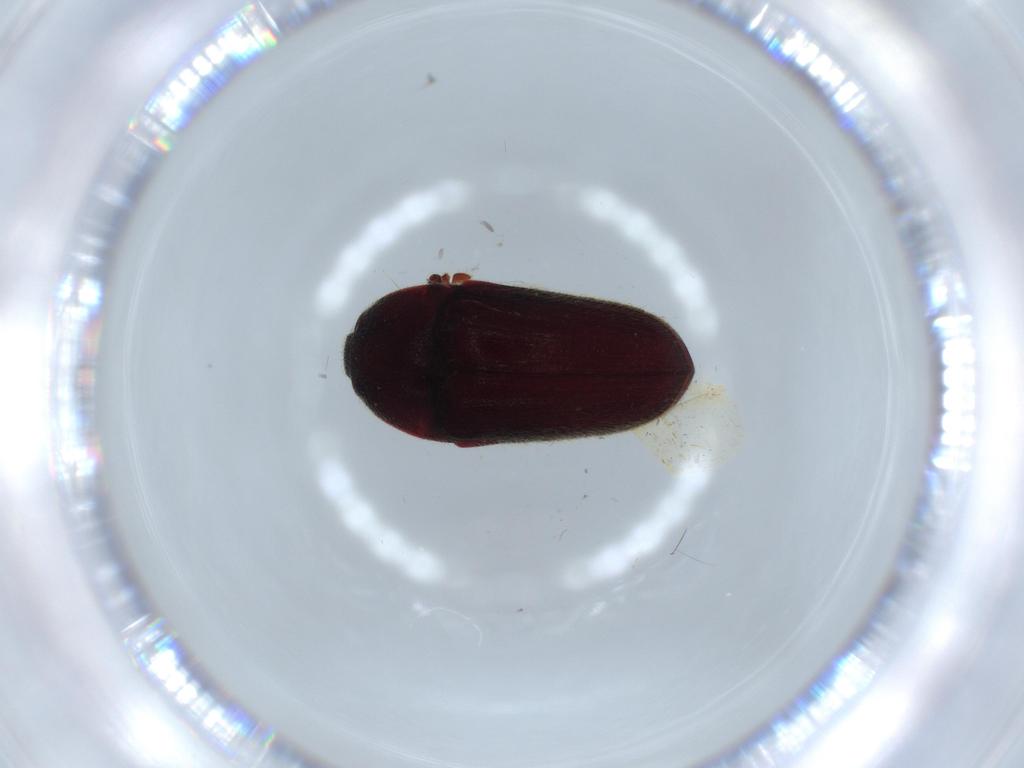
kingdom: Animalia
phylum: Arthropoda
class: Insecta
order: Coleoptera
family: Throscidae
